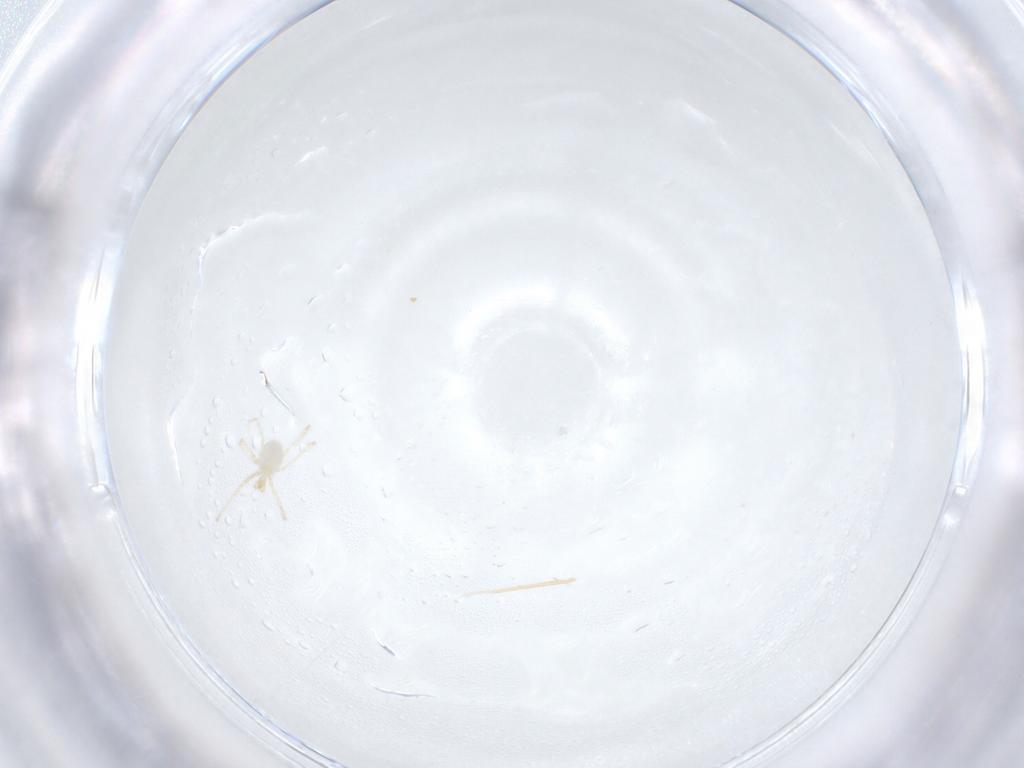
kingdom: Animalia
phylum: Arthropoda
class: Arachnida
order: Trombidiformes
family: Erythraeidae
